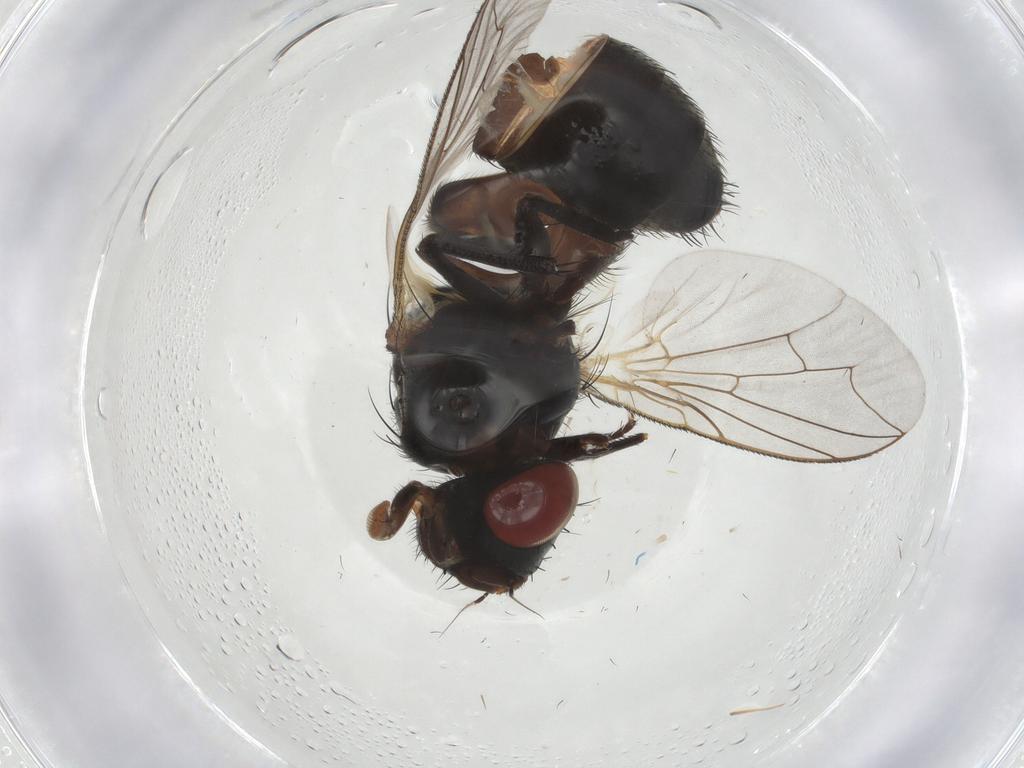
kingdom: Animalia
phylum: Arthropoda
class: Insecta
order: Diptera
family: Sarcophagidae
